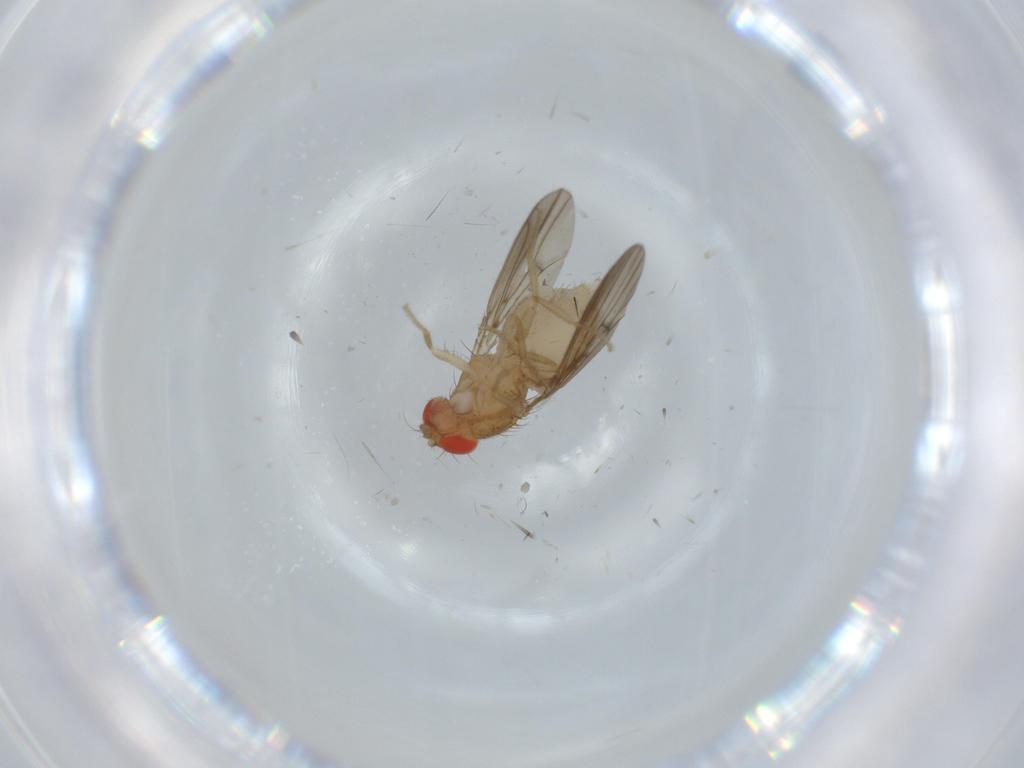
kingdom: Animalia
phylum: Arthropoda
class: Insecta
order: Diptera
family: Drosophilidae
